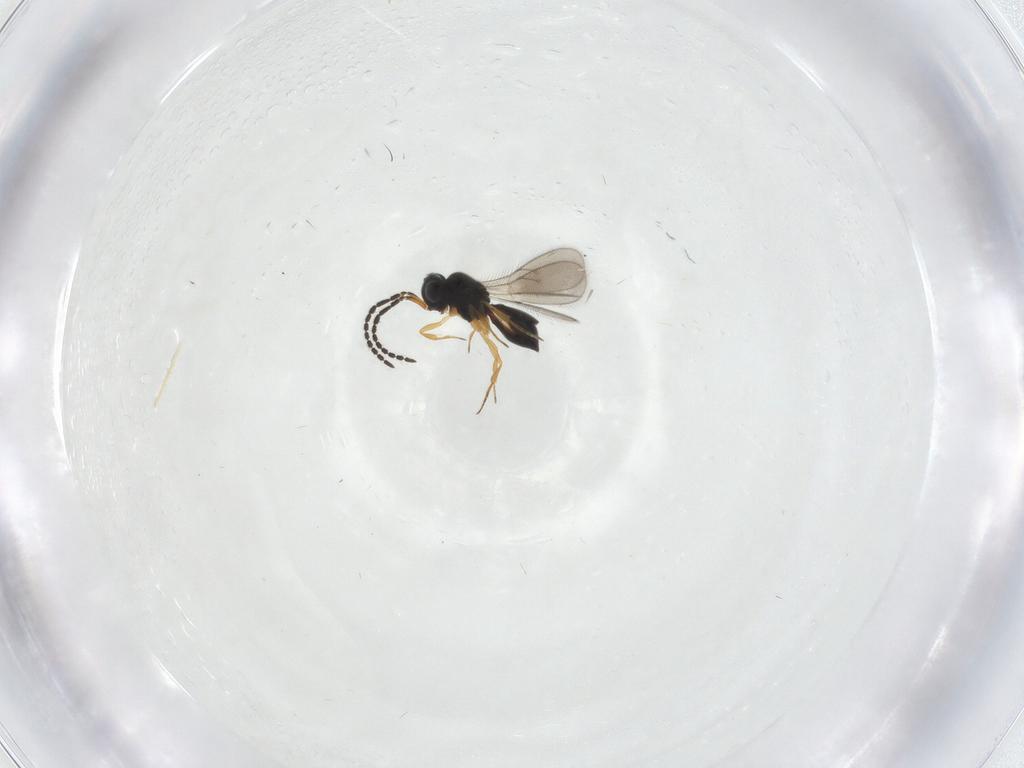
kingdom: Animalia
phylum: Arthropoda
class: Insecta
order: Hymenoptera
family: Scelionidae
